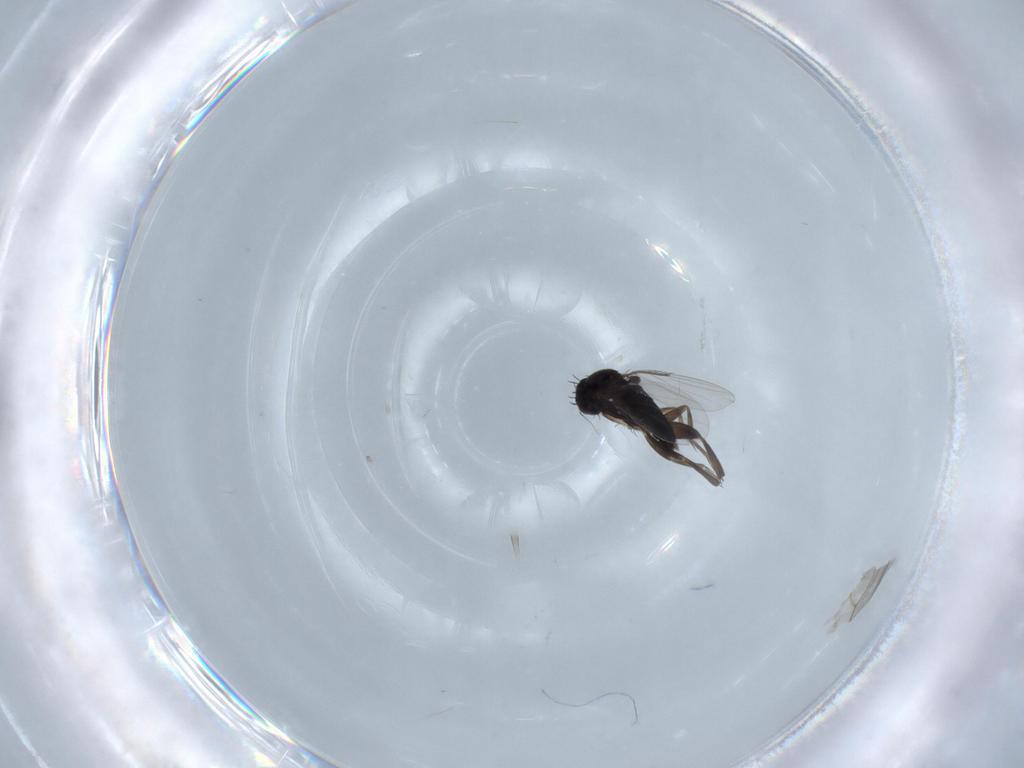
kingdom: Animalia
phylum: Arthropoda
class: Insecta
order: Diptera
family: Phoridae
